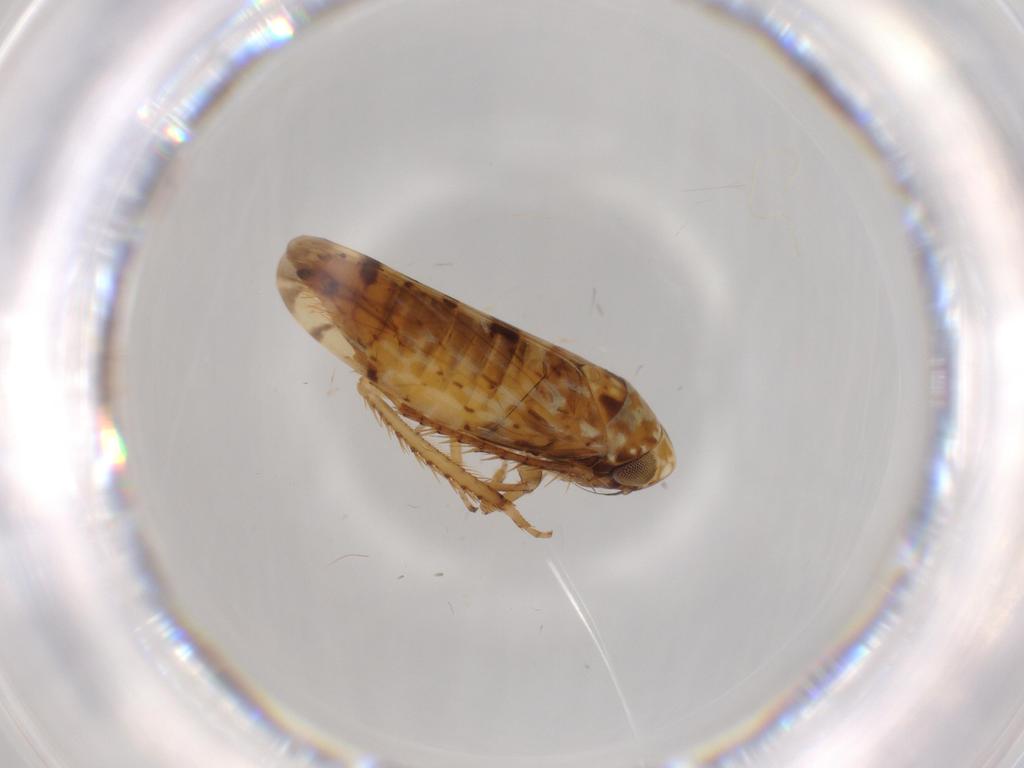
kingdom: Animalia
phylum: Arthropoda
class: Insecta
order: Hemiptera
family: Cicadellidae
